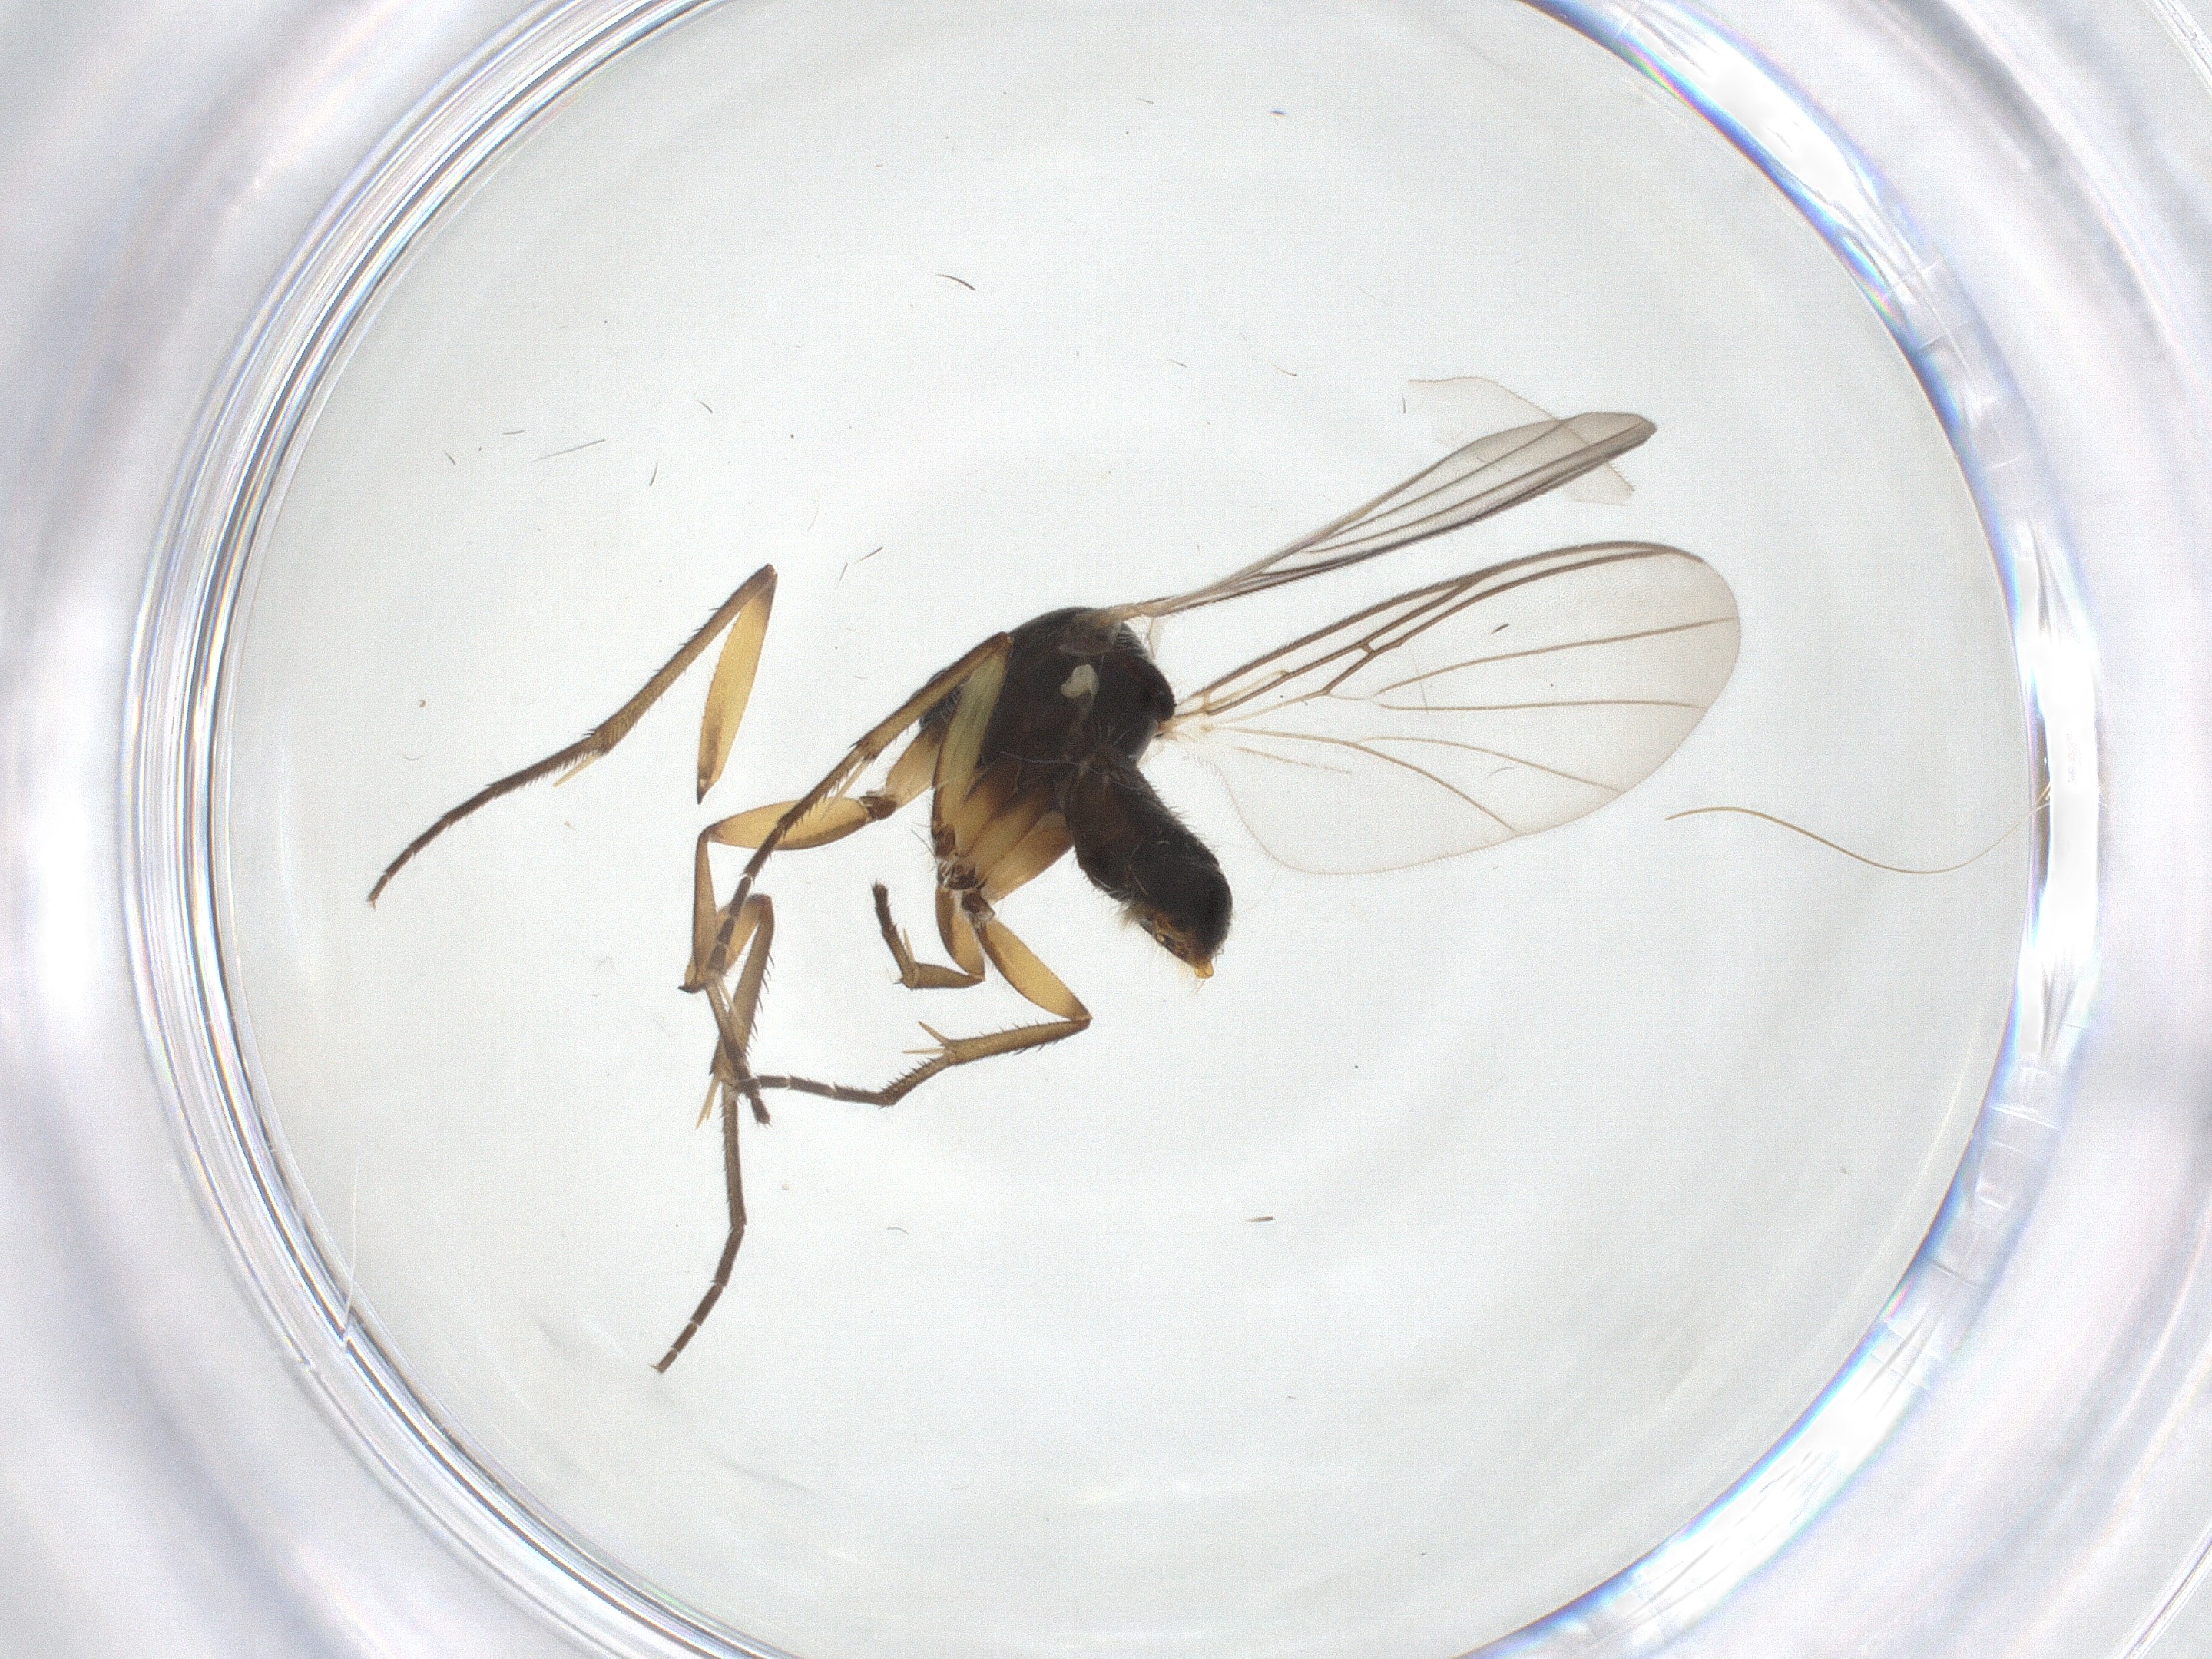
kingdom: Animalia
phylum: Arthropoda
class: Insecta
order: Diptera
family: Mycetophilidae
